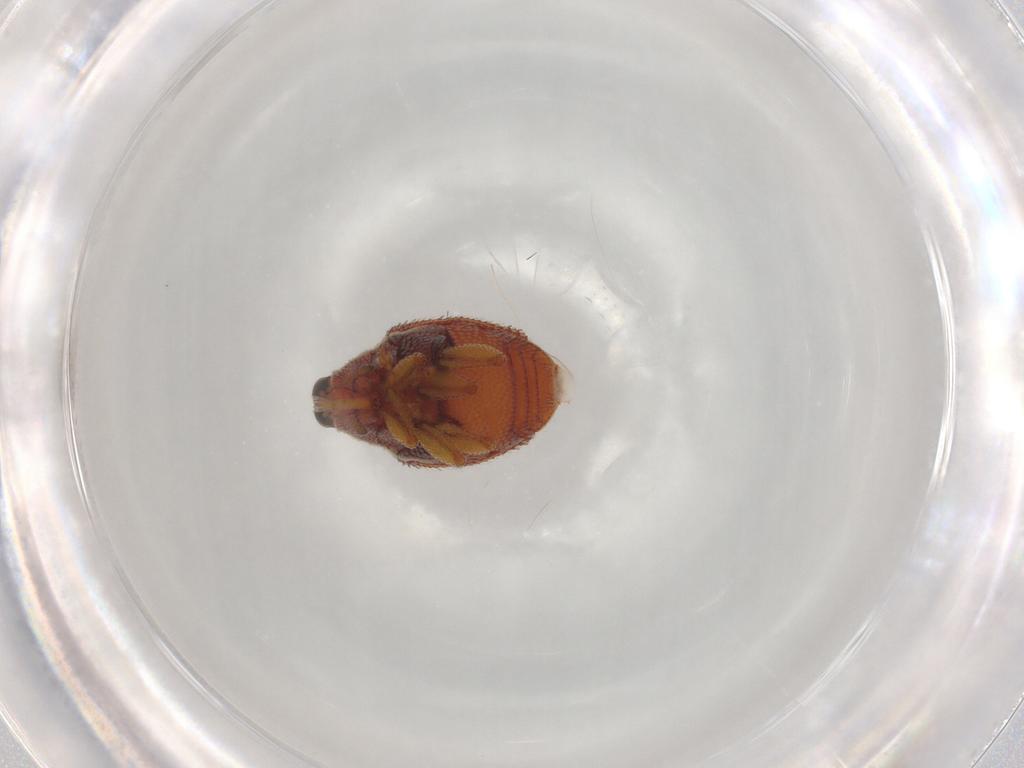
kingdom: Animalia
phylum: Arthropoda
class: Insecta
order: Coleoptera
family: Curculionidae
